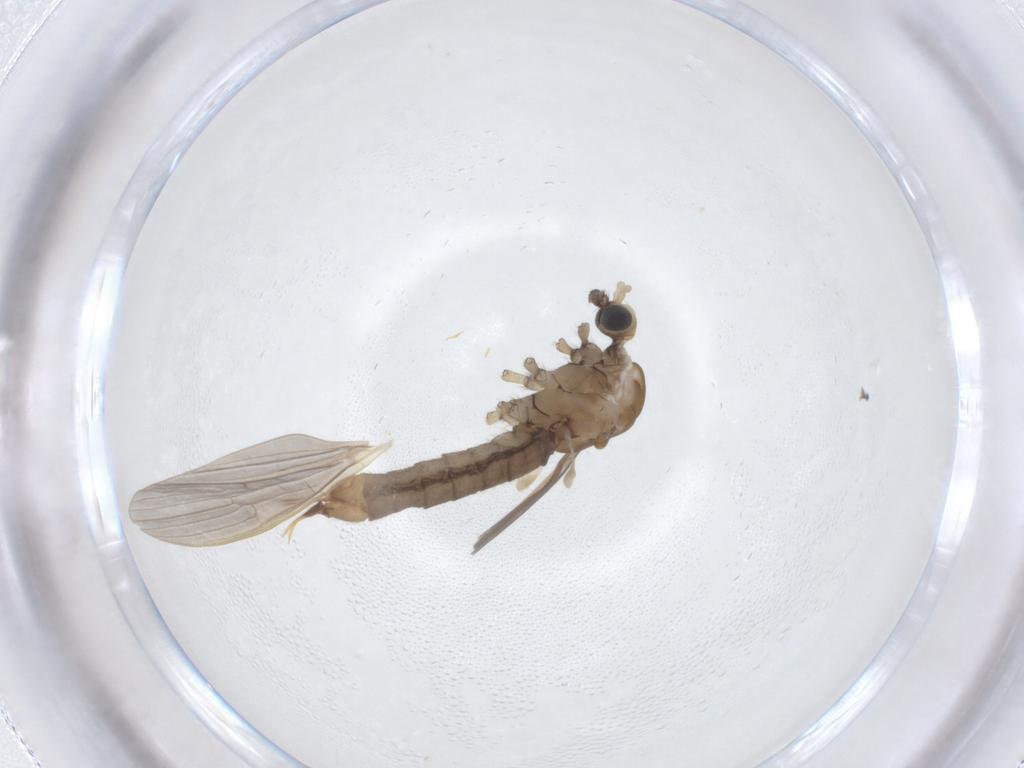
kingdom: Animalia
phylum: Arthropoda
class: Insecta
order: Diptera
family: Limoniidae
